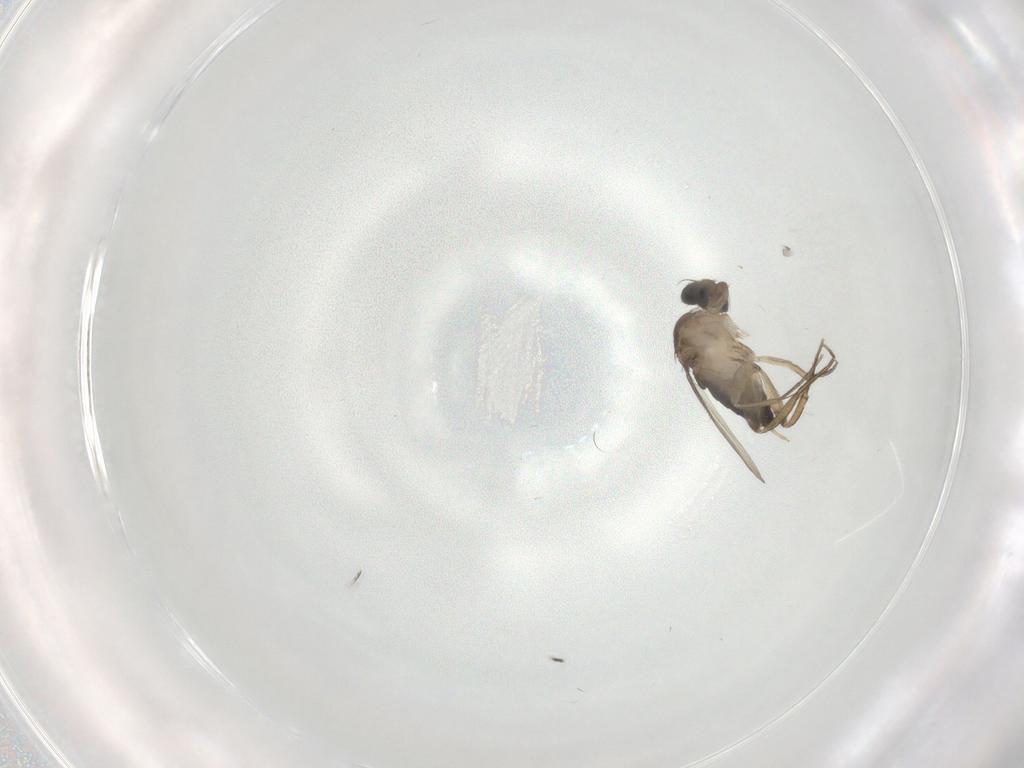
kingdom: Animalia
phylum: Arthropoda
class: Insecta
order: Diptera
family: Phoridae
